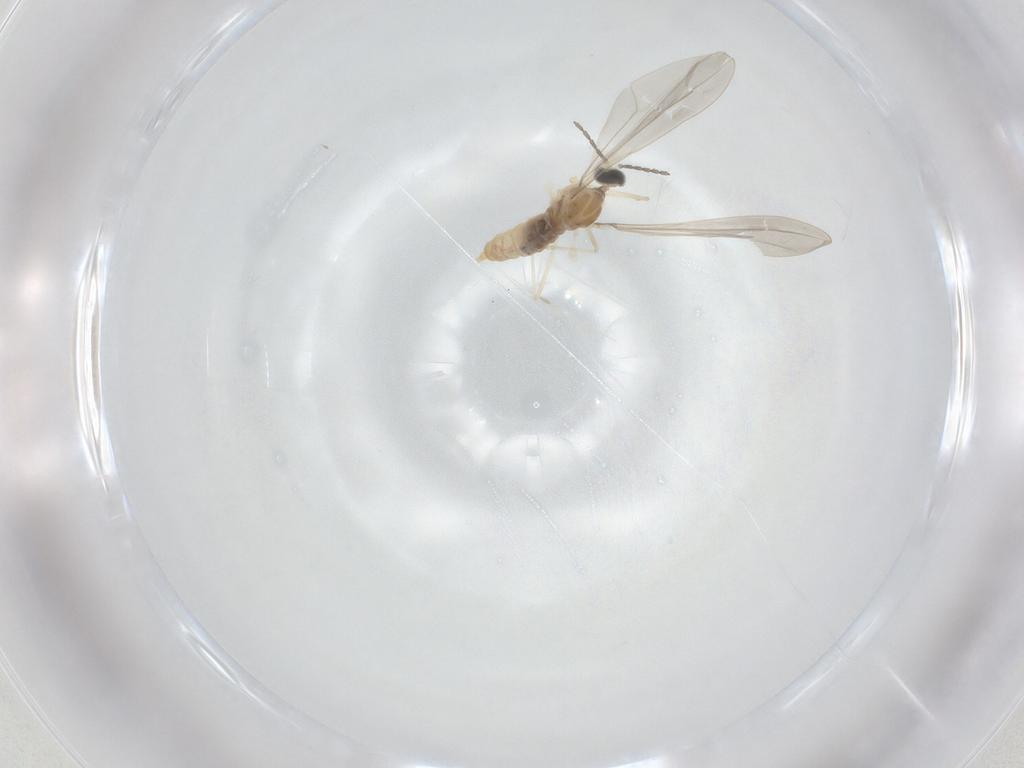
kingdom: Animalia
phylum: Arthropoda
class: Insecta
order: Diptera
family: Cecidomyiidae
